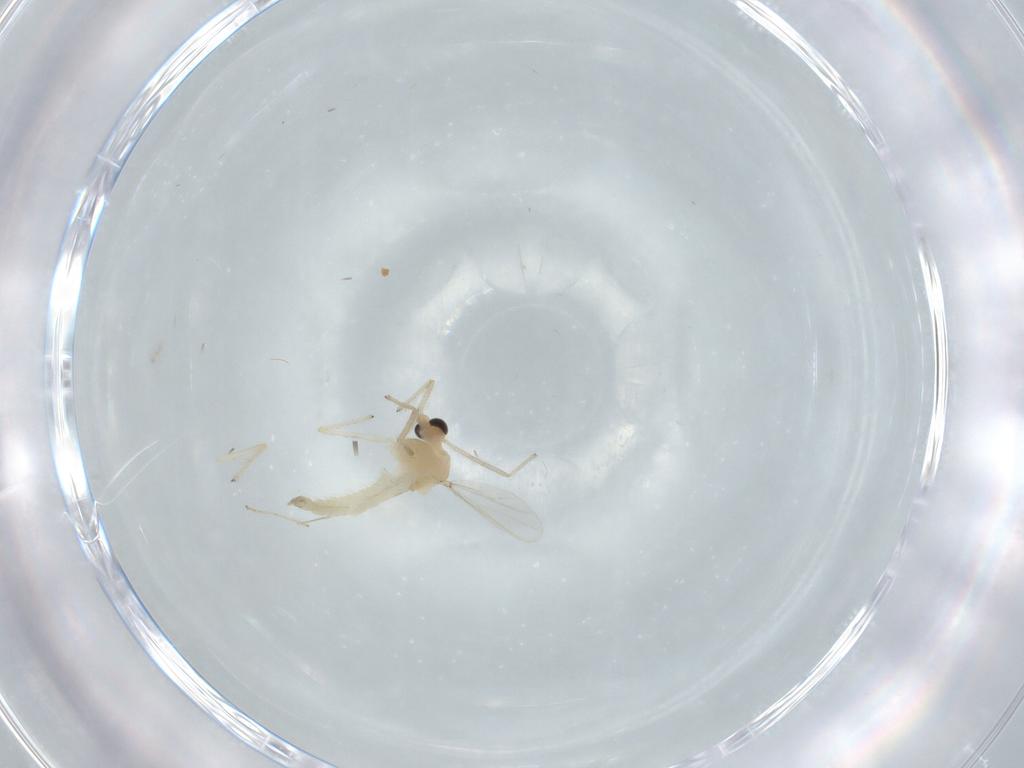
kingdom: Animalia
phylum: Arthropoda
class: Insecta
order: Diptera
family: Chironomidae
